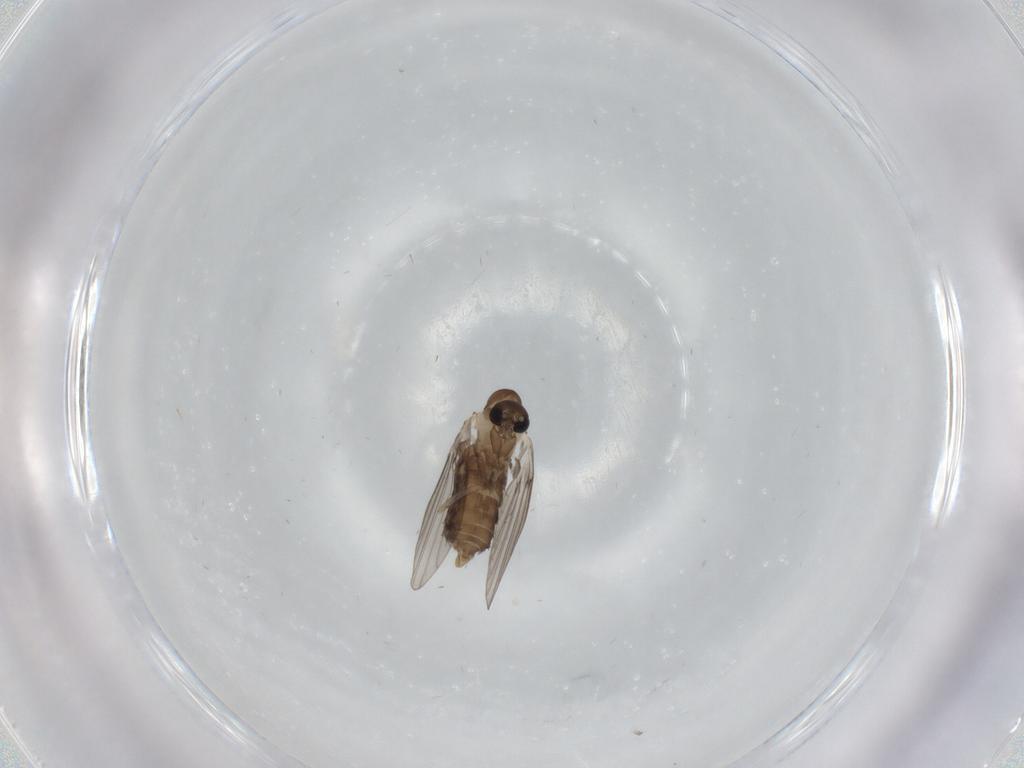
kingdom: Animalia
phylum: Arthropoda
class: Insecta
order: Diptera
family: Psychodidae
